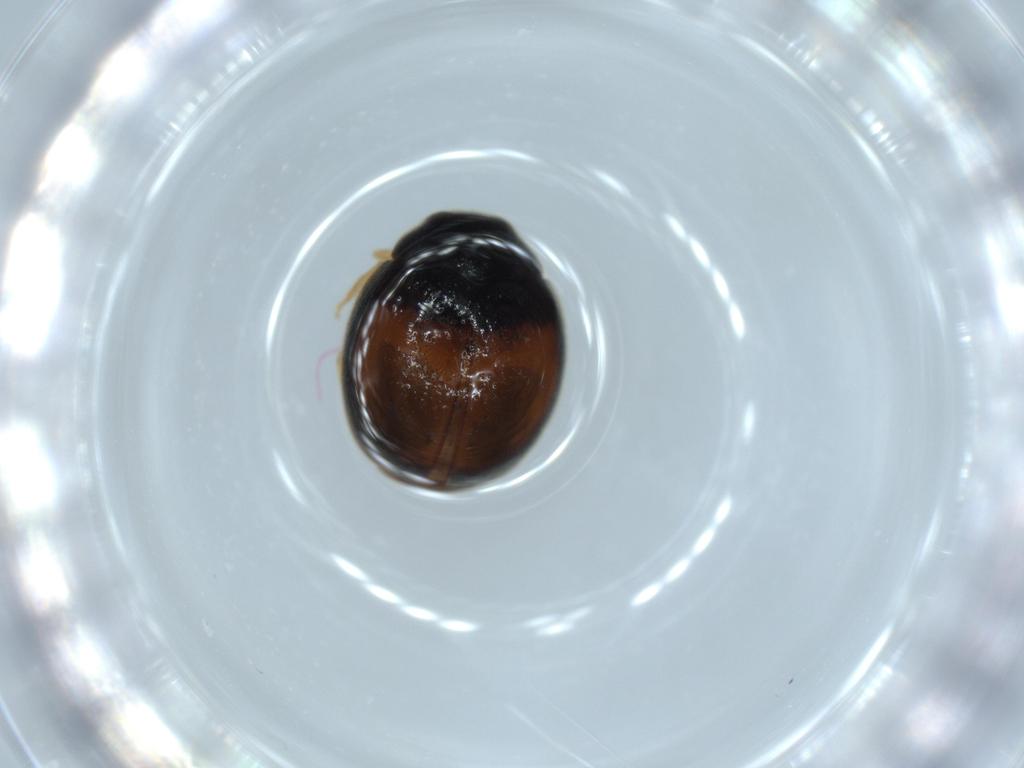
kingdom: Animalia
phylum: Arthropoda
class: Insecta
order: Coleoptera
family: Coccinellidae
